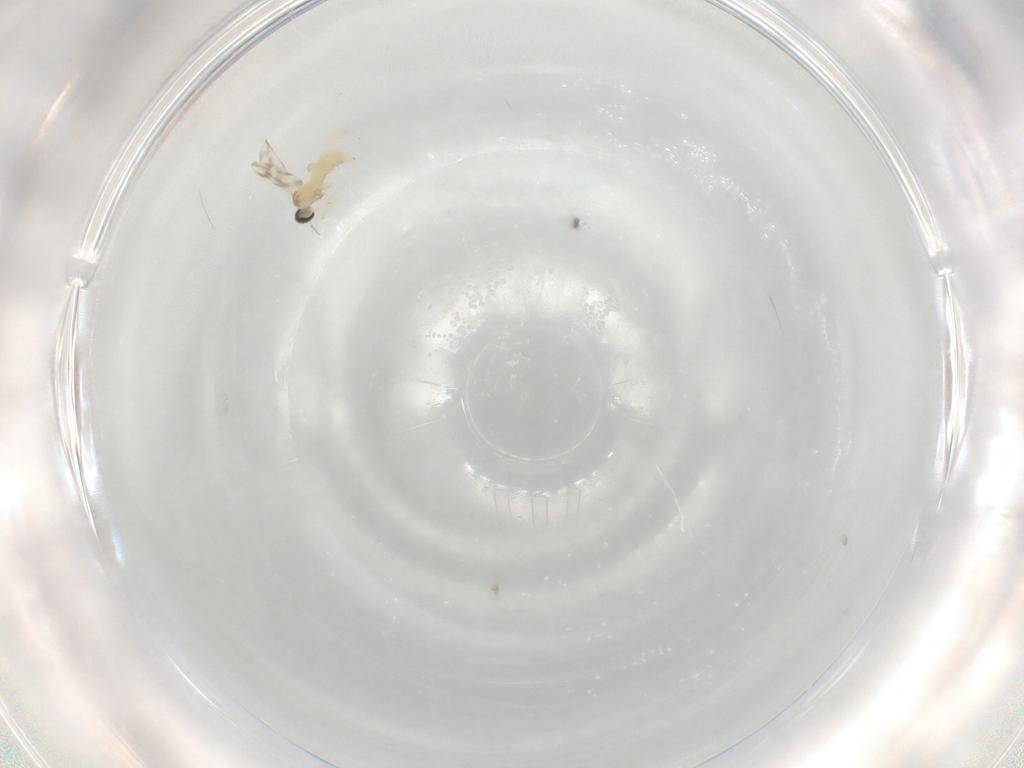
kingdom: Animalia
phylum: Arthropoda
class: Insecta
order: Diptera
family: Cecidomyiidae
